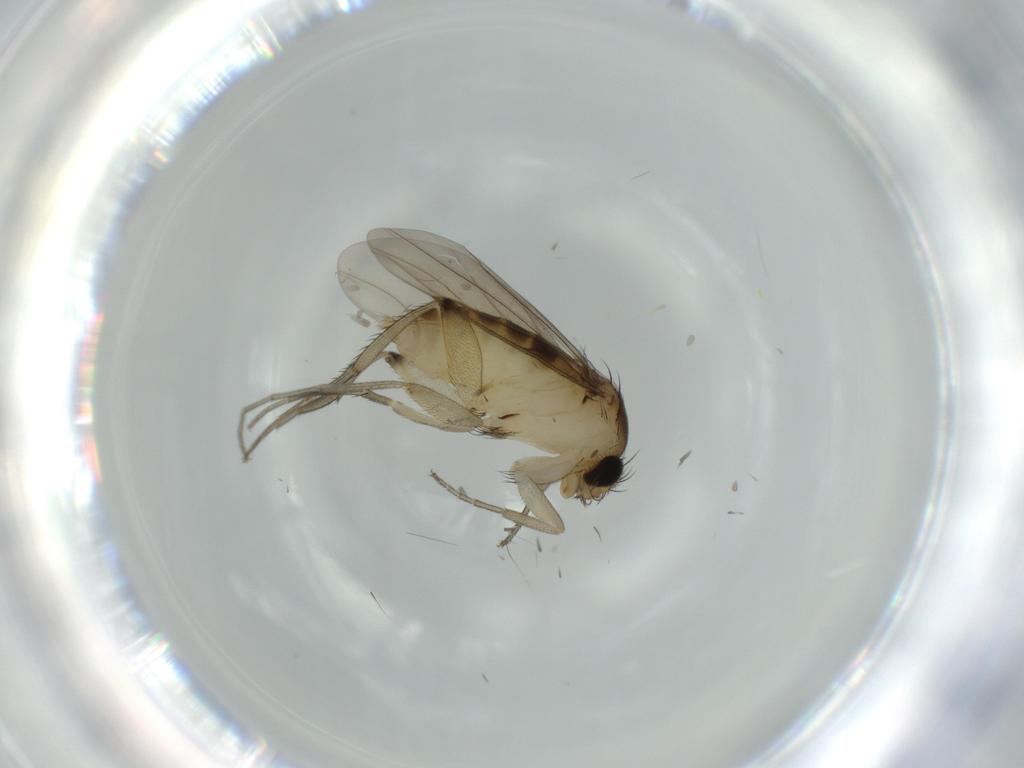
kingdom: Animalia
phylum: Arthropoda
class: Insecta
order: Diptera
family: Phoridae
